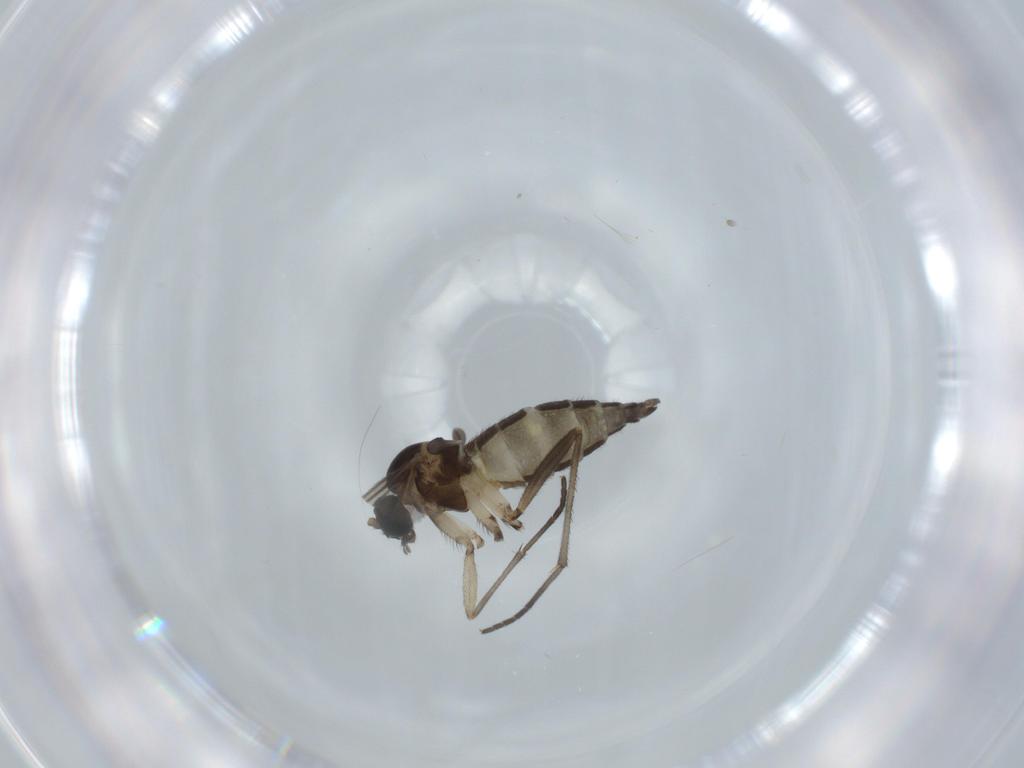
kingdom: Animalia
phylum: Arthropoda
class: Insecta
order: Diptera
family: Sciaridae
